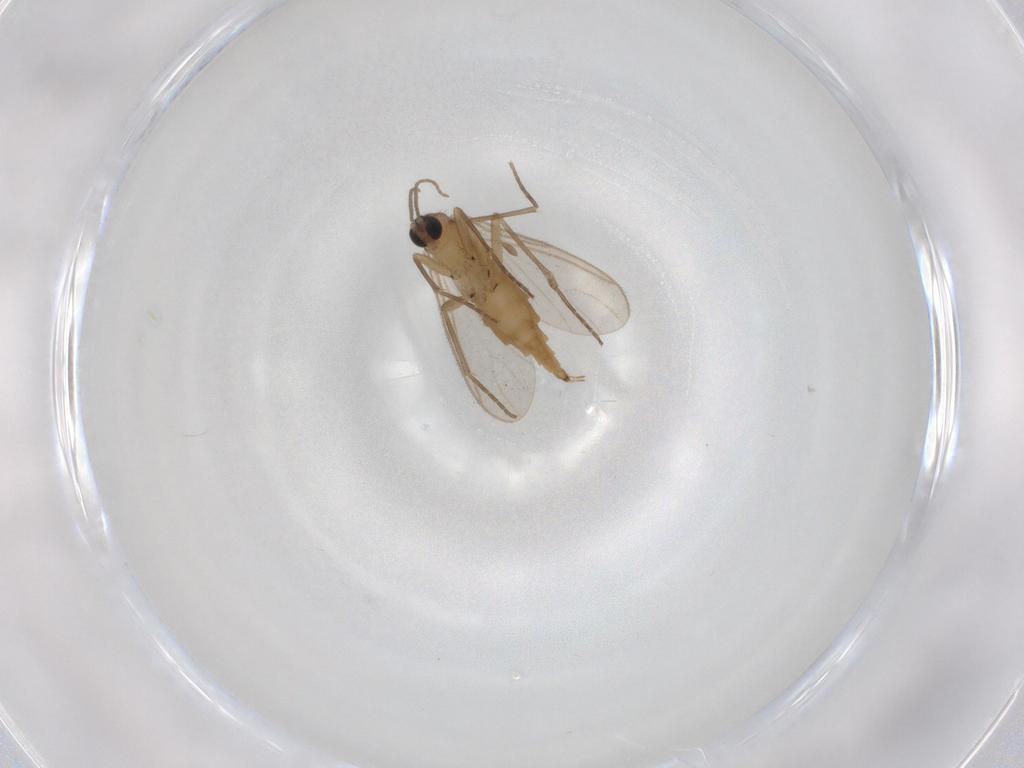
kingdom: Animalia
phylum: Arthropoda
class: Insecta
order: Diptera
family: Sciaridae
